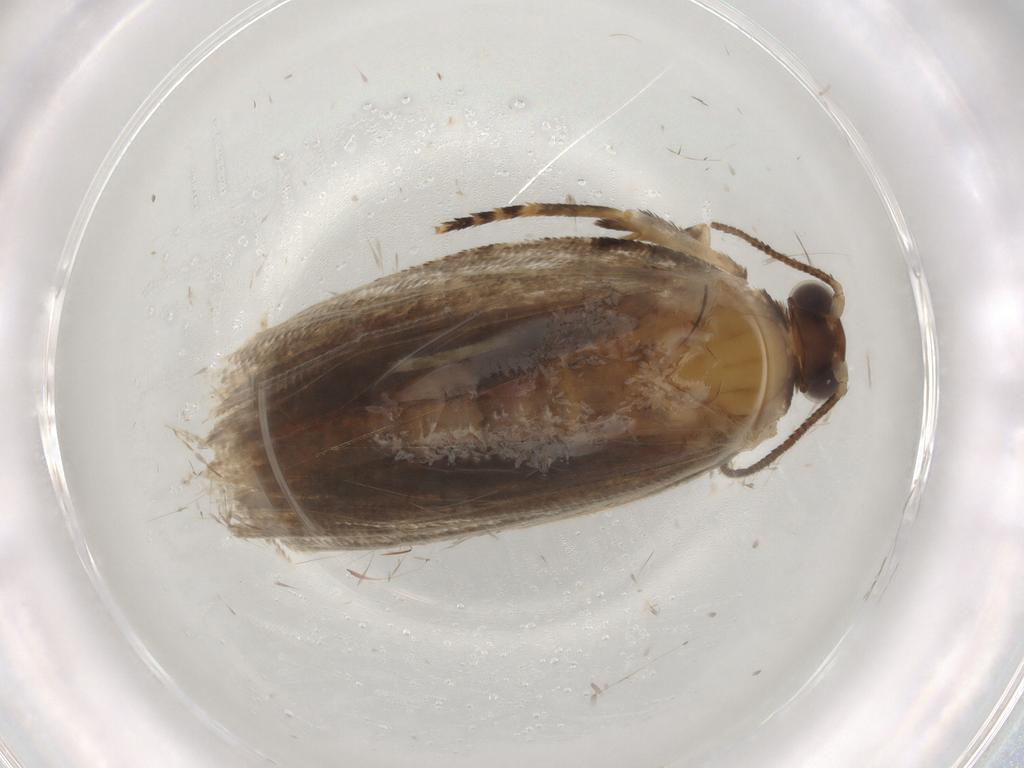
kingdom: Animalia
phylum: Arthropoda
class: Insecta
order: Lepidoptera
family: Tortricidae
